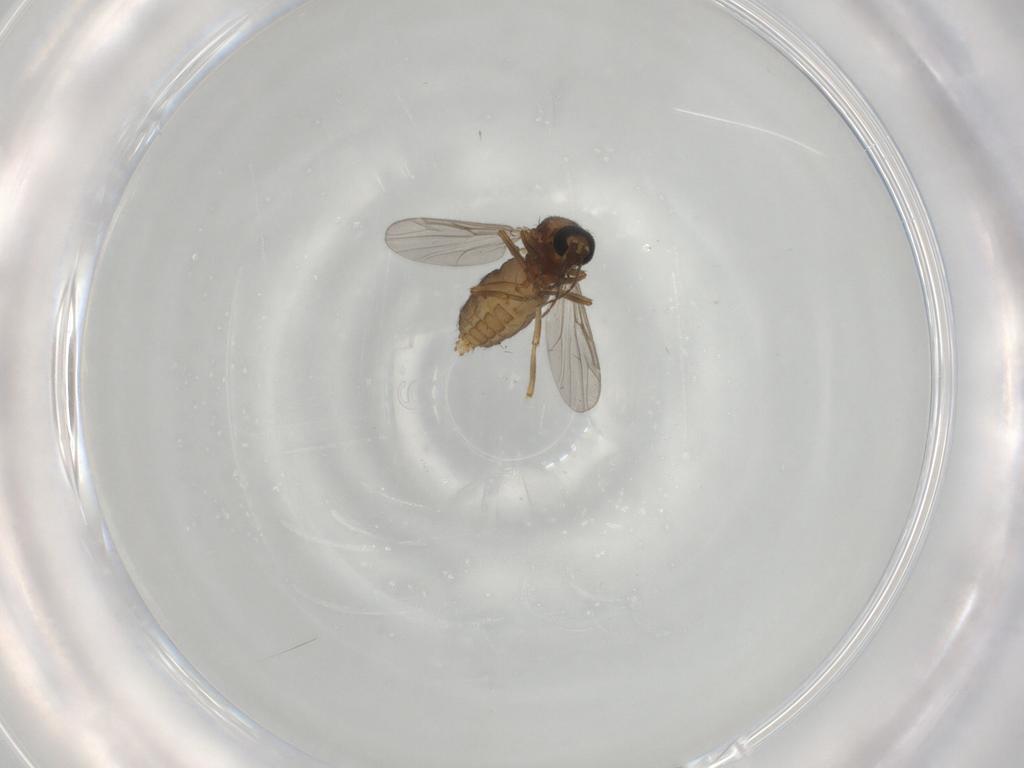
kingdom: Animalia
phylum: Arthropoda
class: Insecta
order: Diptera
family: Ceratopogonidae
